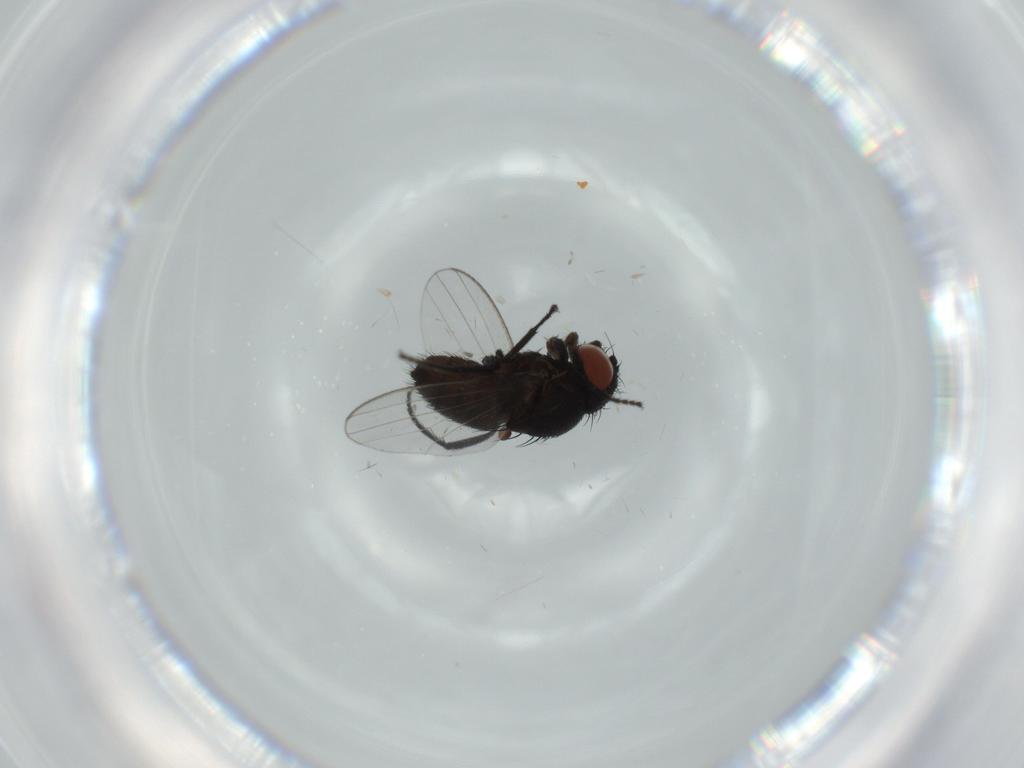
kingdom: Animalia
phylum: Arthropoda
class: Insecta
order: Diptera
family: Milichiidae
